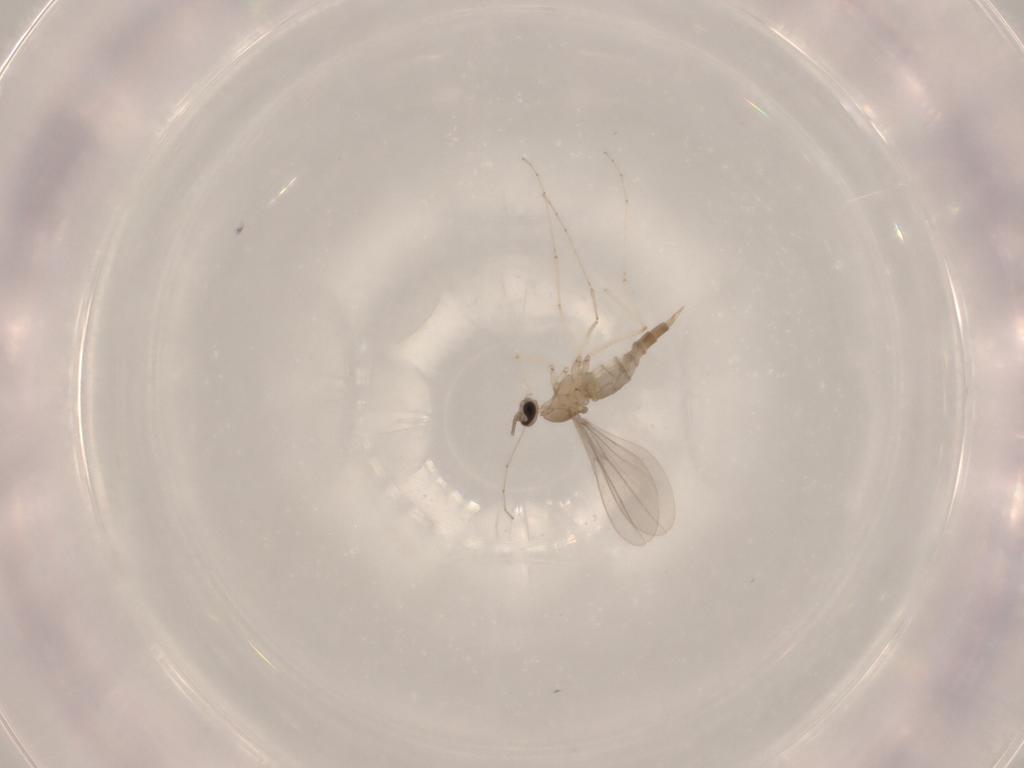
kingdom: Animalia
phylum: Arthropoda
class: Insecta
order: Diptera
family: Cecidomyiidae
